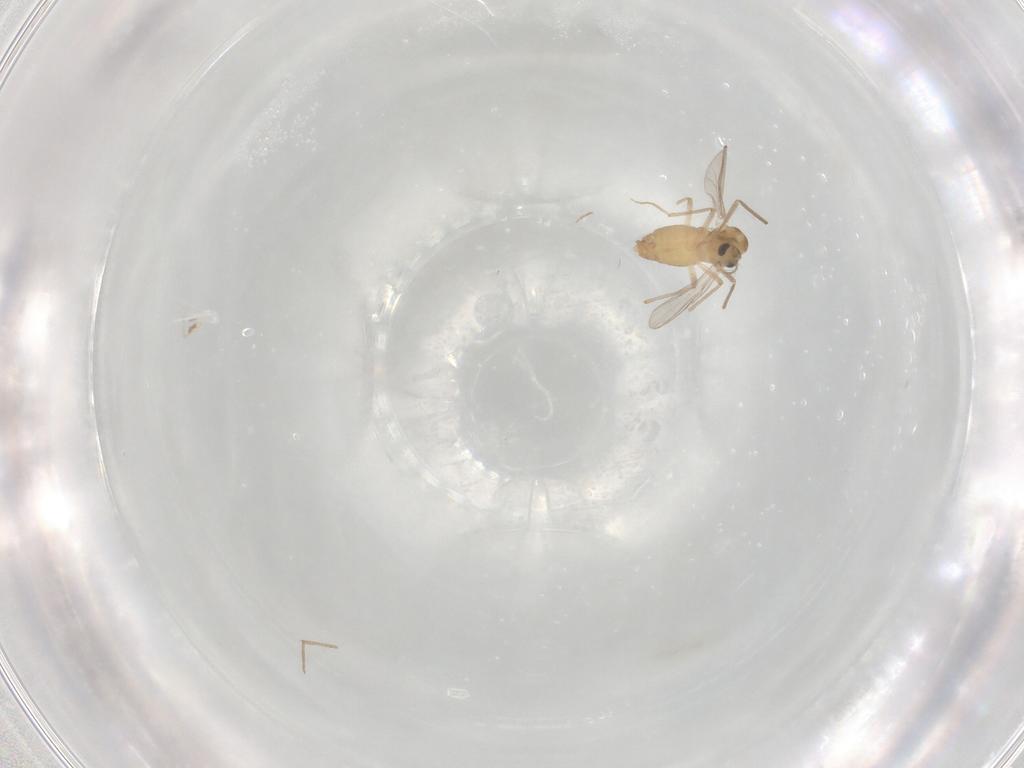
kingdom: Animalia
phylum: Arthropoda
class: Insecta
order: Diptera
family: Chironomidae
